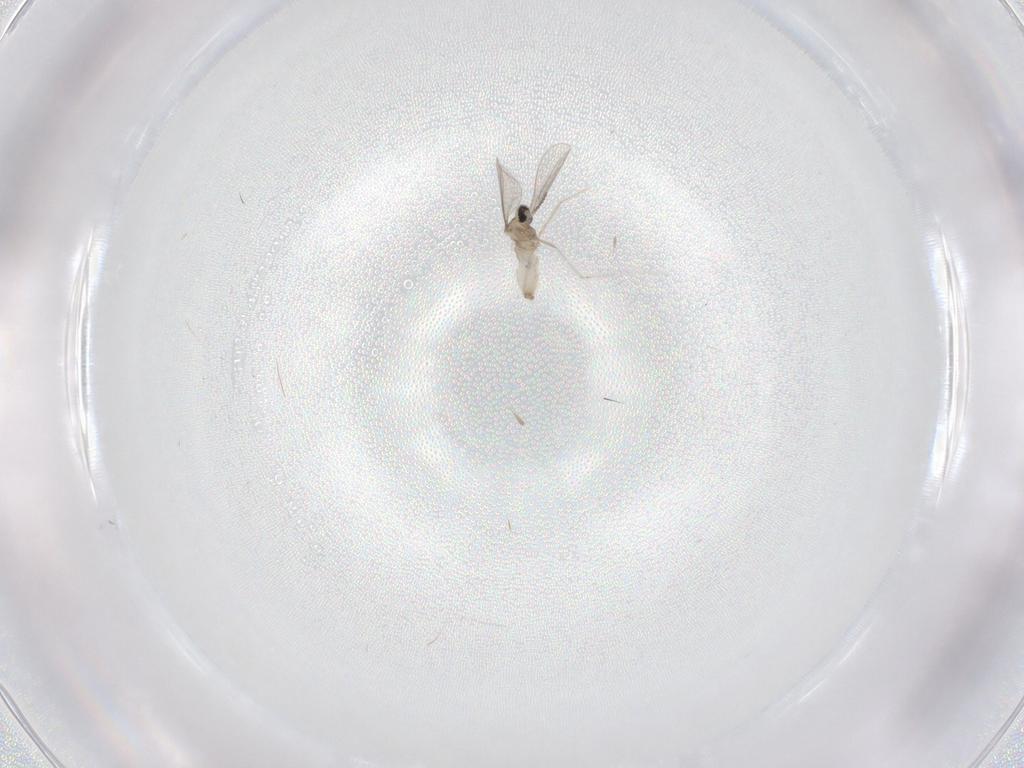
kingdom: Animalia
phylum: Arthropoda
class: Insecta
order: Diptera
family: Cecidomyiidae
